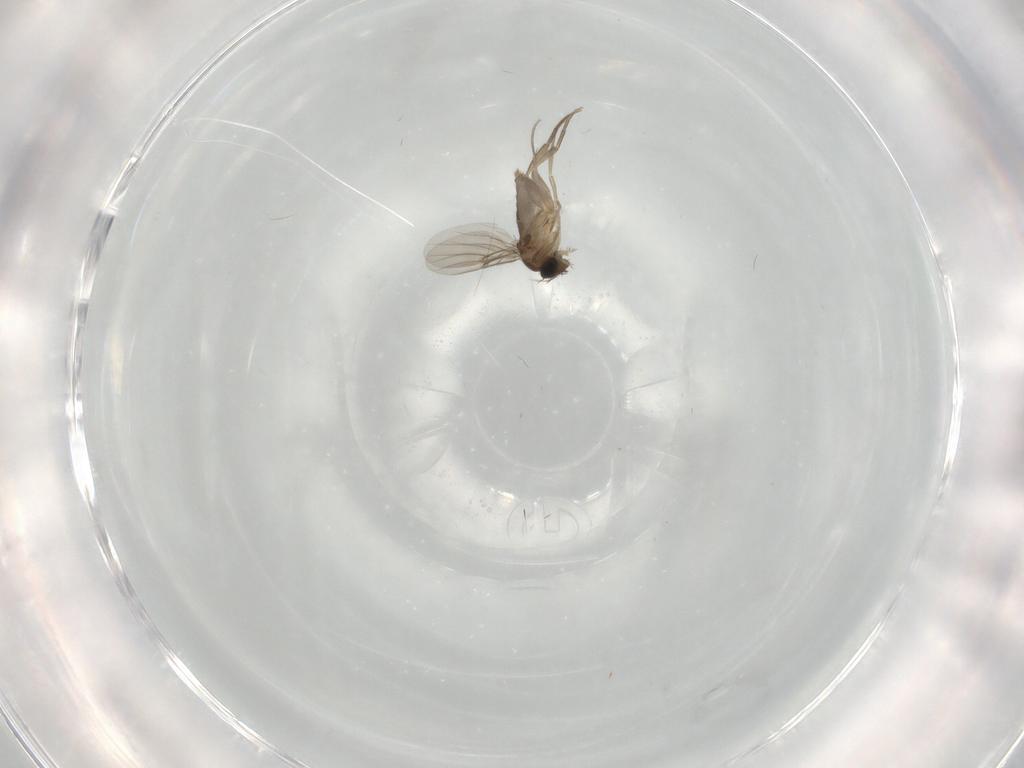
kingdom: Animalia
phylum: Arthropoda
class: Insecta
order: Diptera
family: Phoridae
